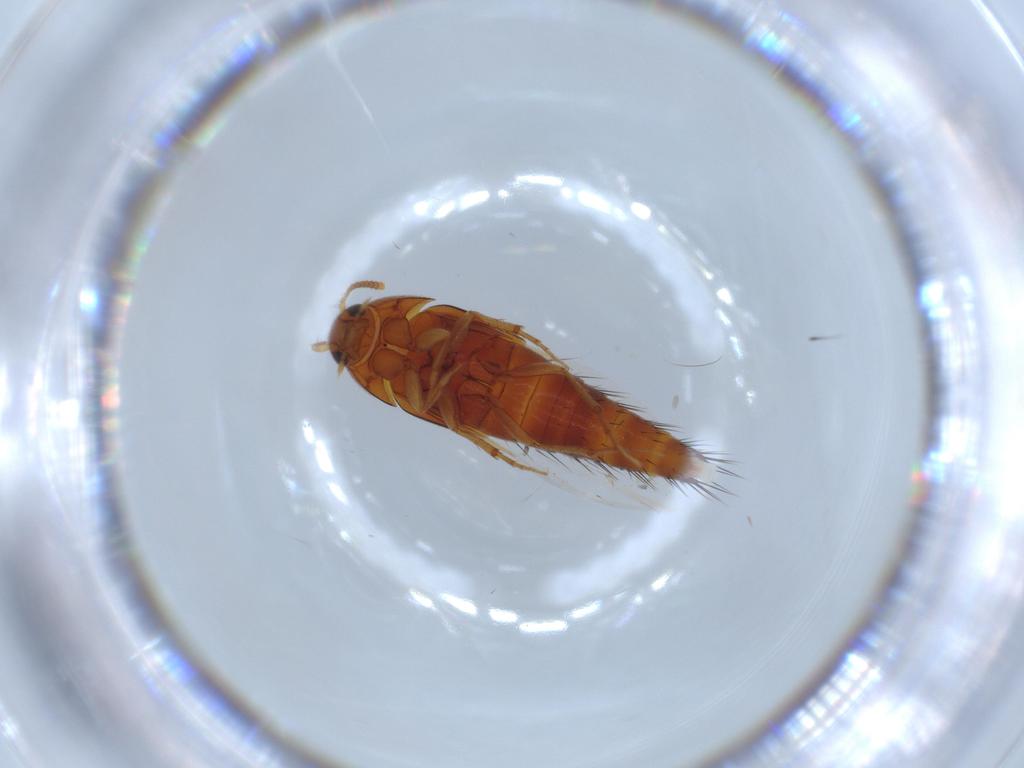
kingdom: Animalia
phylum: Arthropoda
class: Insecta
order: Coleoptera
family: Staphylinidae
